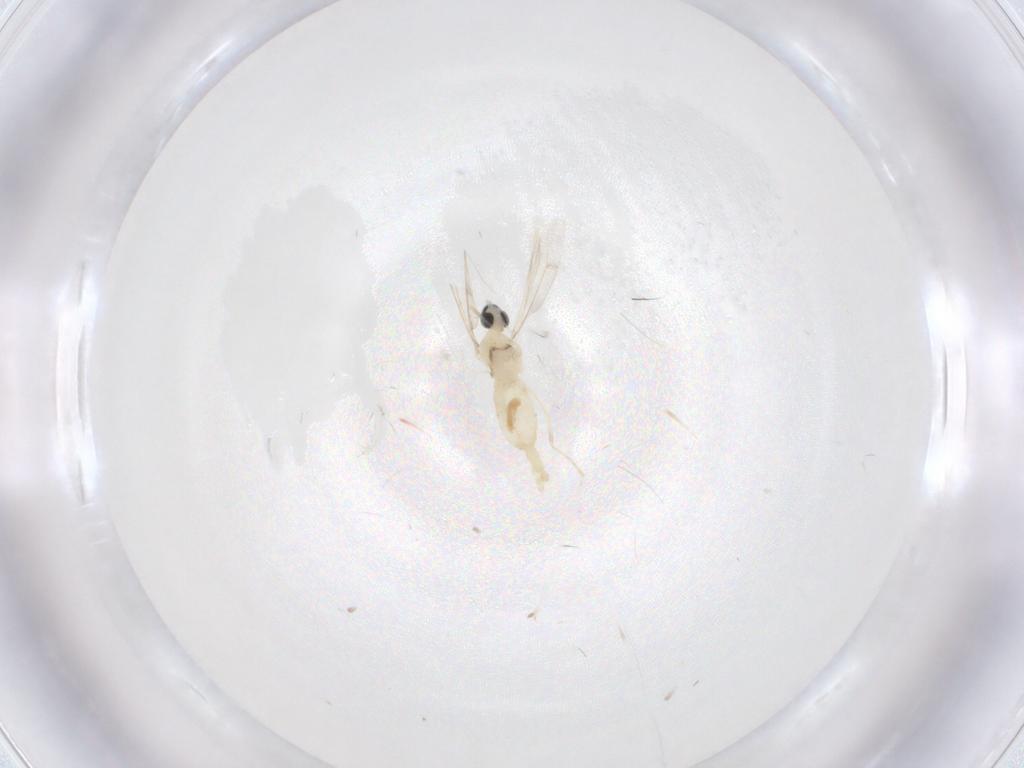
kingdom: Animalia
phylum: Arthropoda
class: Insecta
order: Diptera
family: Cecidomyiidae
